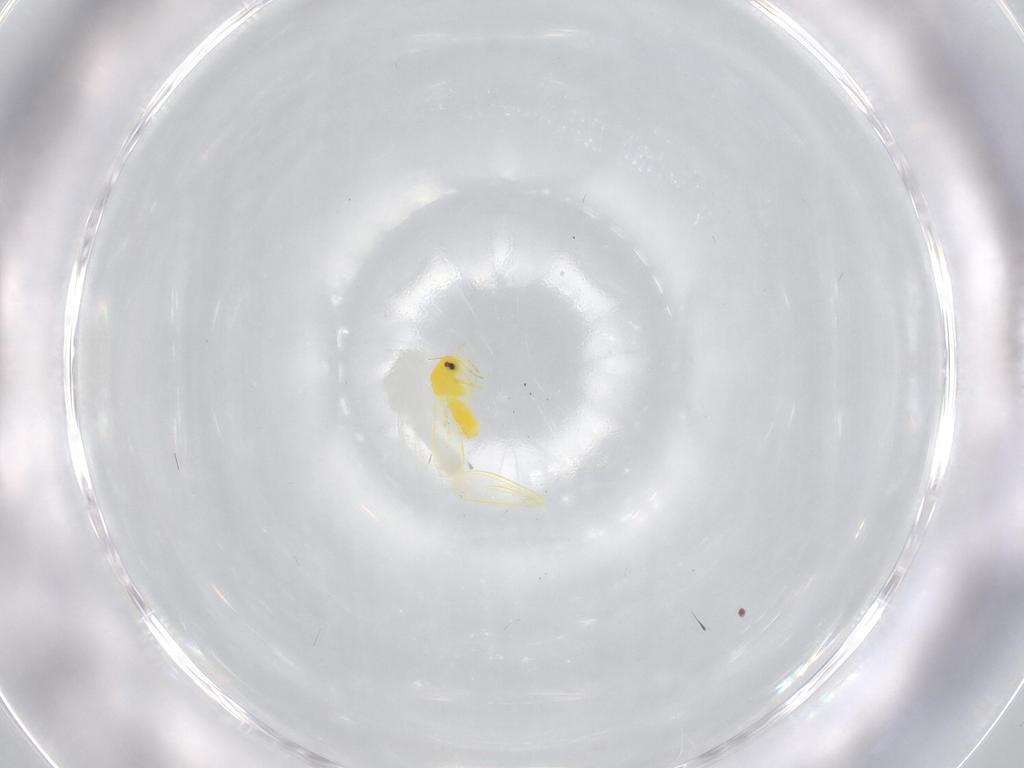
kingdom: Animalia
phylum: Arthropoda
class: Insecta
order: Hemiptera
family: Aleyrodidae
